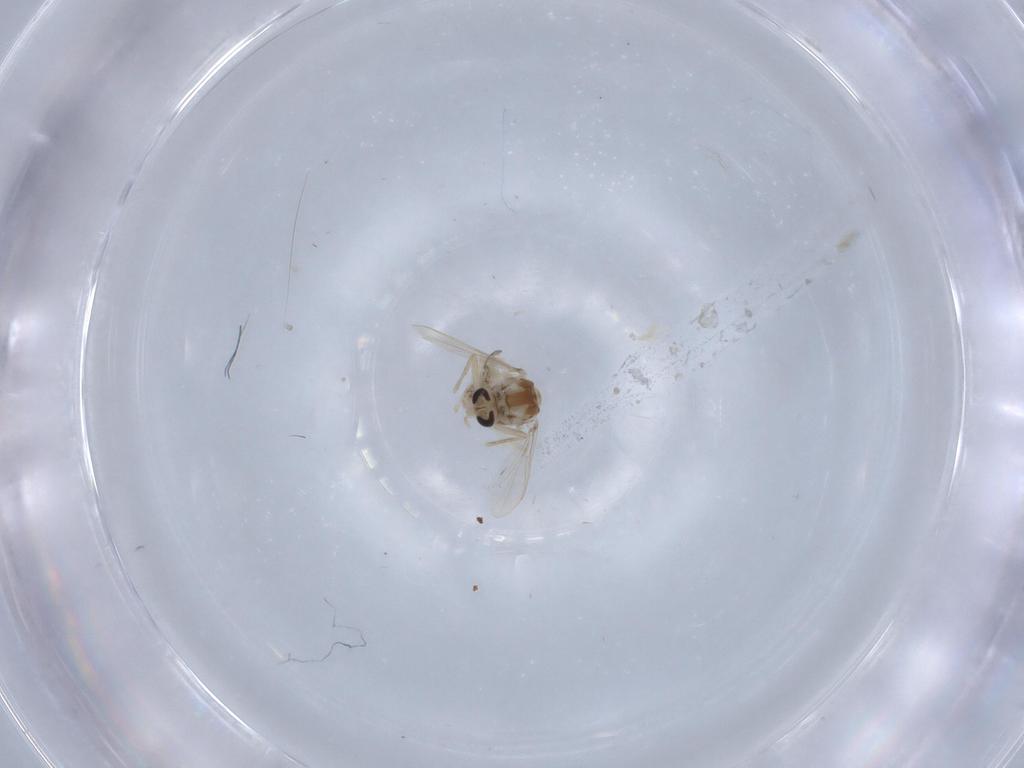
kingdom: Animalia
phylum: Arthropoda
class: Insecta
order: Diptera
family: Chironomidae
